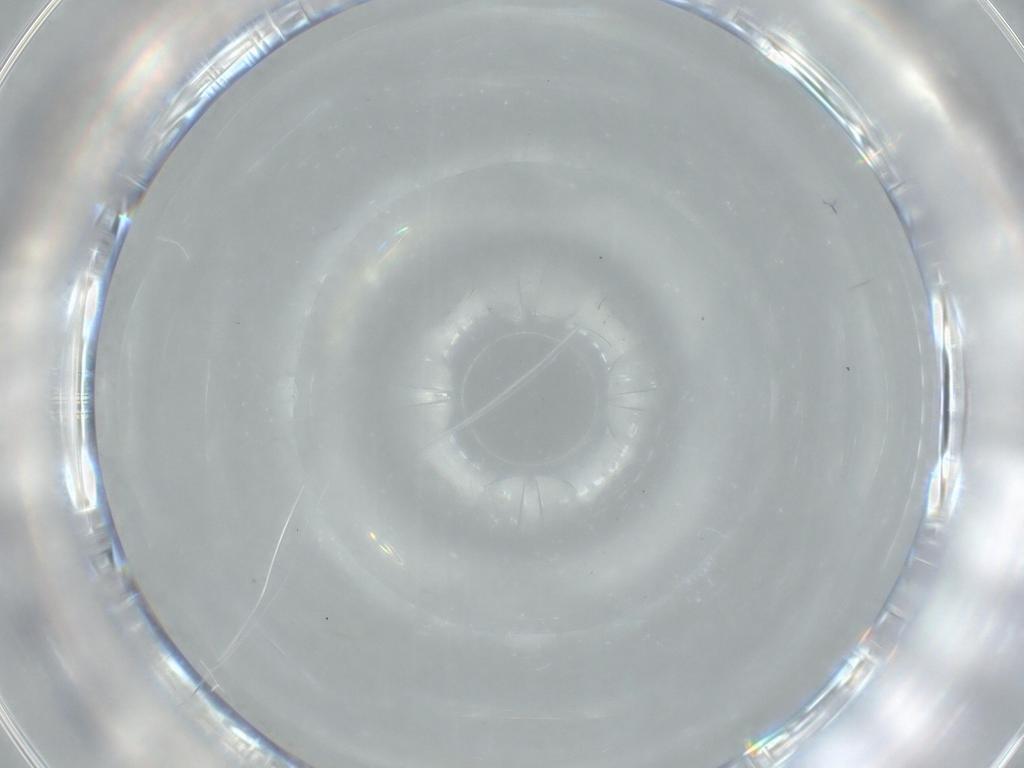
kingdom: Animalia
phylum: Arthropoda
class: Insecta
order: Diptera
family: Cecidomyiidae
